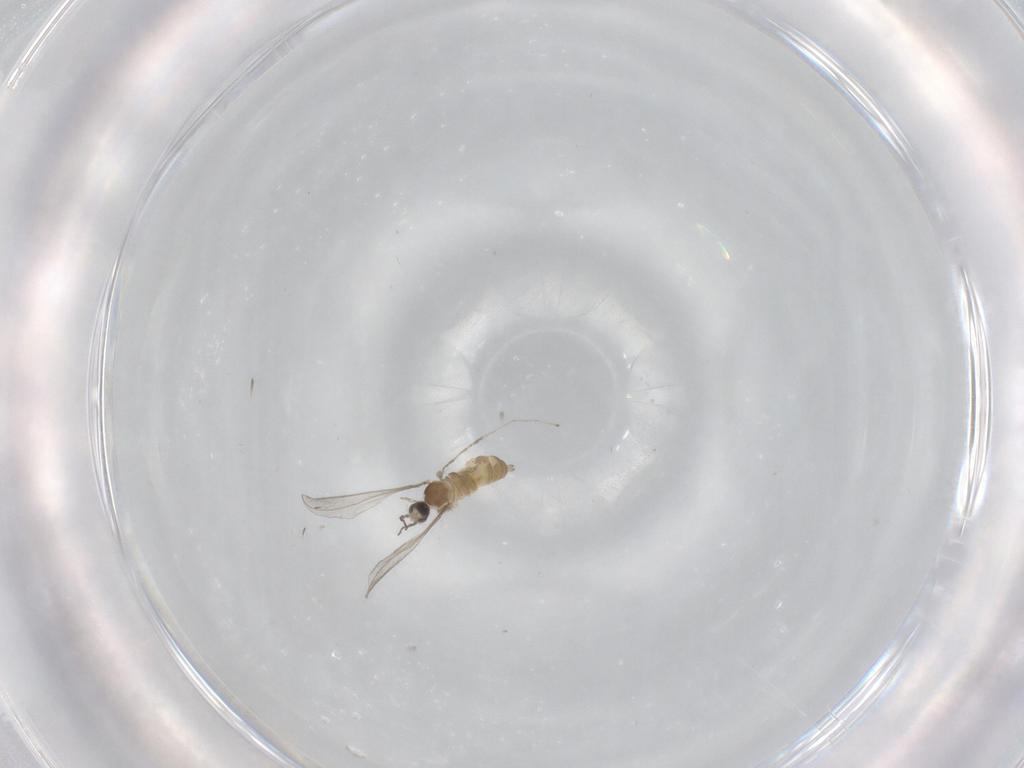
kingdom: Animalia
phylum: Arthropoda
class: Insecta
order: Diptera
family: Cecidomyiidae
